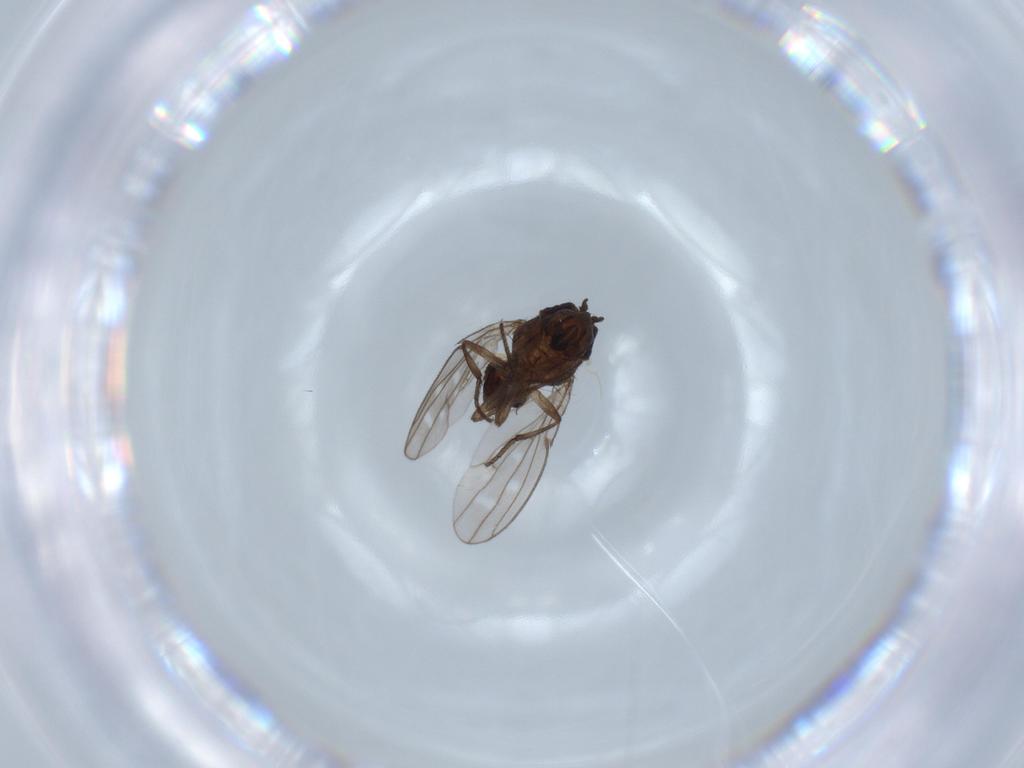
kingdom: Animalia
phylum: Arthropoda
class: Insecta
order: Diptera
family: Ephydridae
